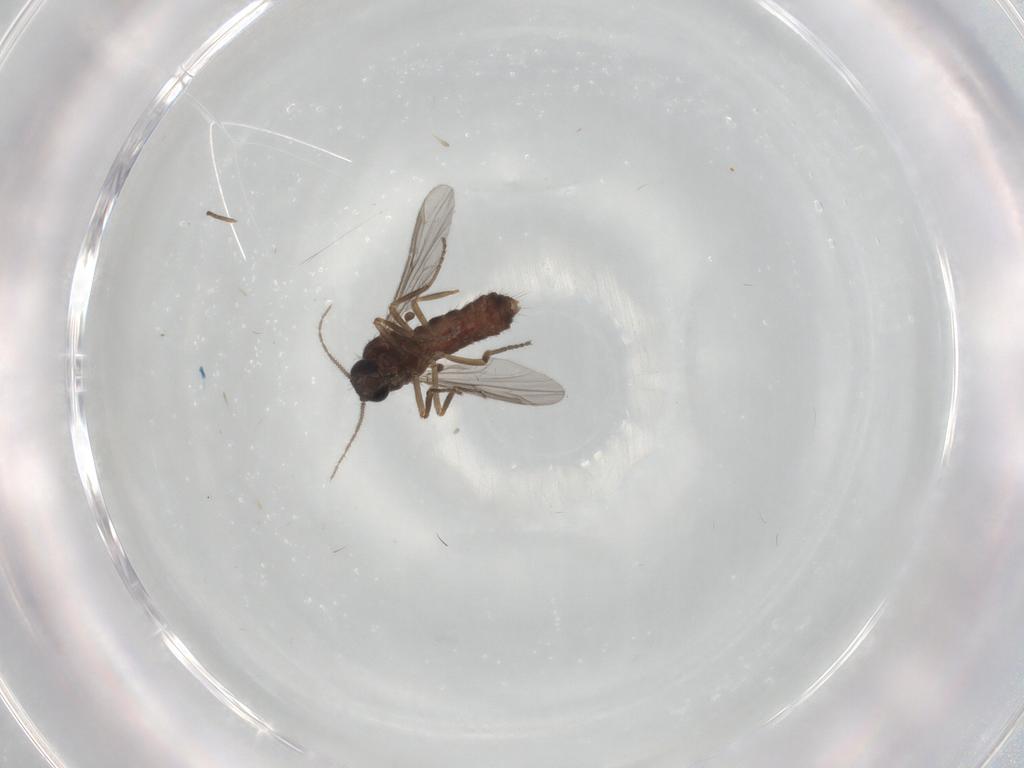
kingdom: Animalia
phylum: Arthropoda
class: Insecta
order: Diptera
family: Ceratopogonidae
